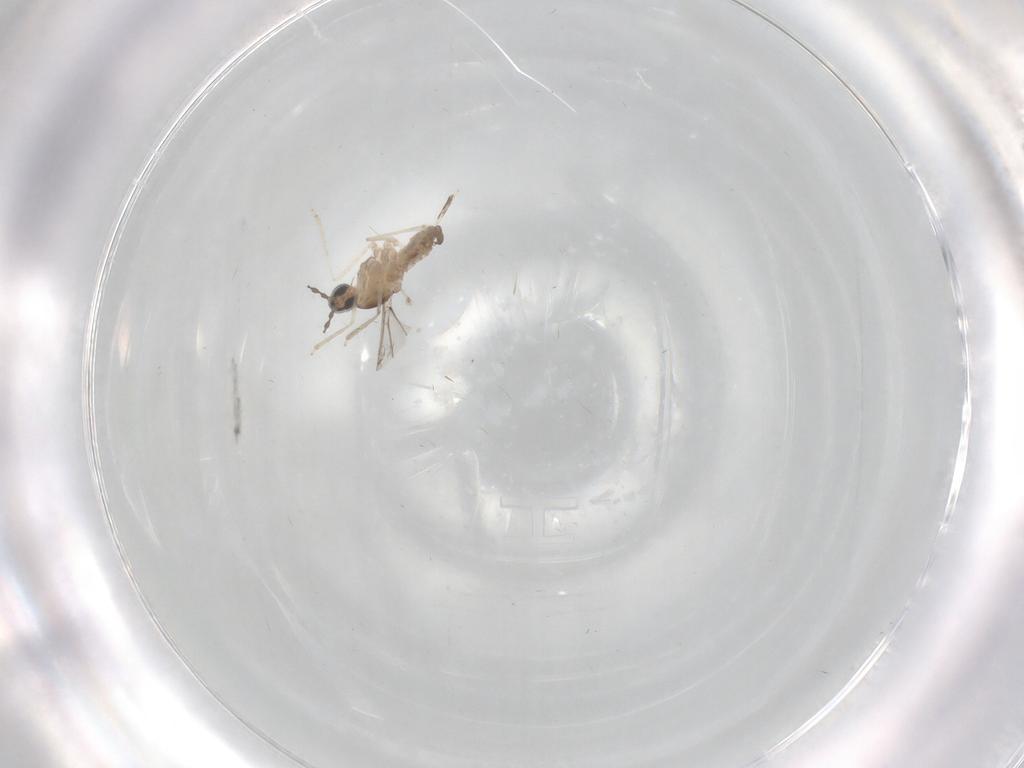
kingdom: Animalia
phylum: Arthropoda
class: Insecta
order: Diptera
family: Cecidomyiidae
